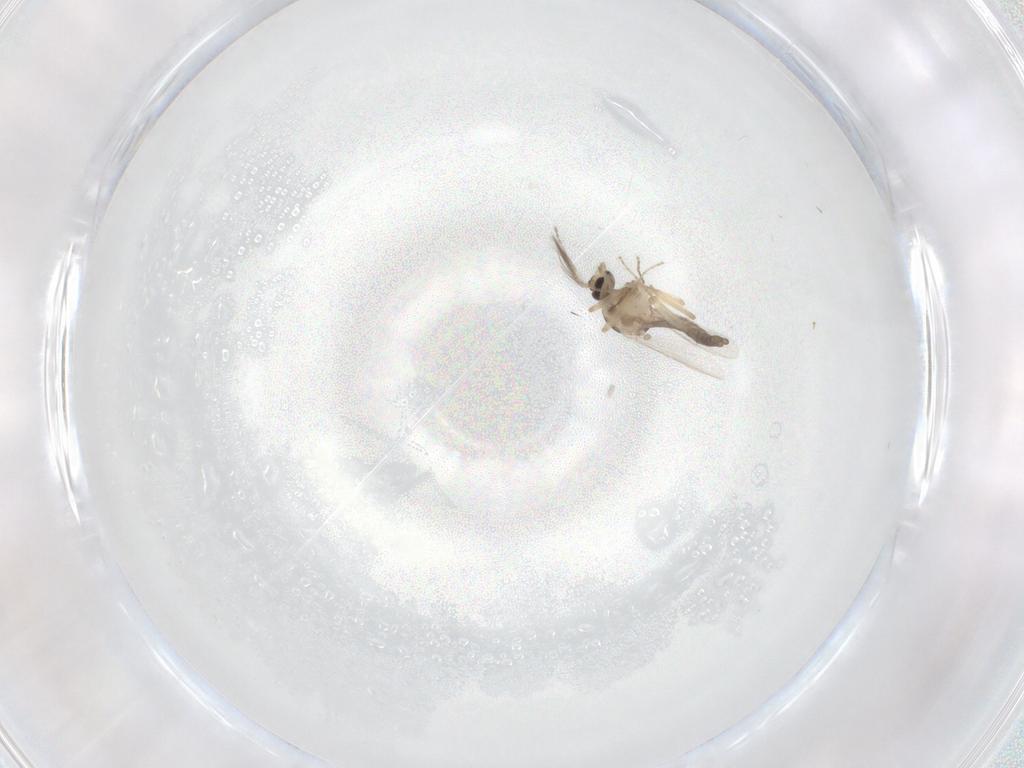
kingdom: Animalia
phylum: Arthropoda
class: Insecta
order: Diptera
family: Ceratopogonidae
